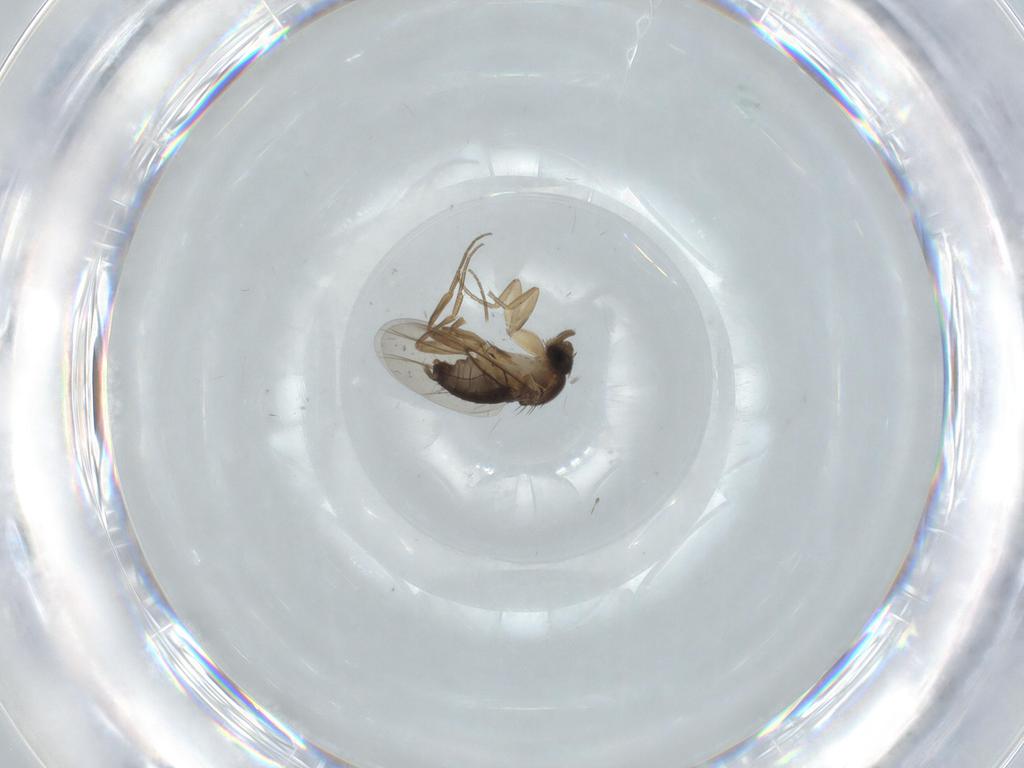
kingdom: Animalia
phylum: Arthropoda
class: Insecta
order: Diptera
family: Phoridae
